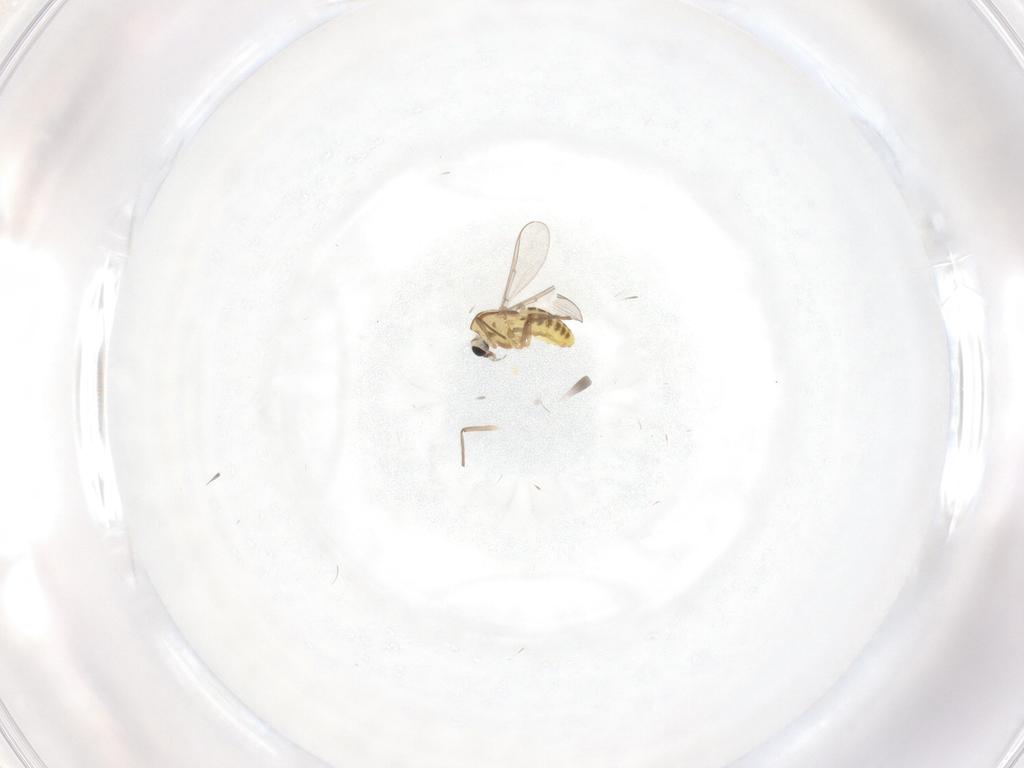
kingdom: Animalia
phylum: Arthropoda
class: Insecta
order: Diptera
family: Chironomidae
